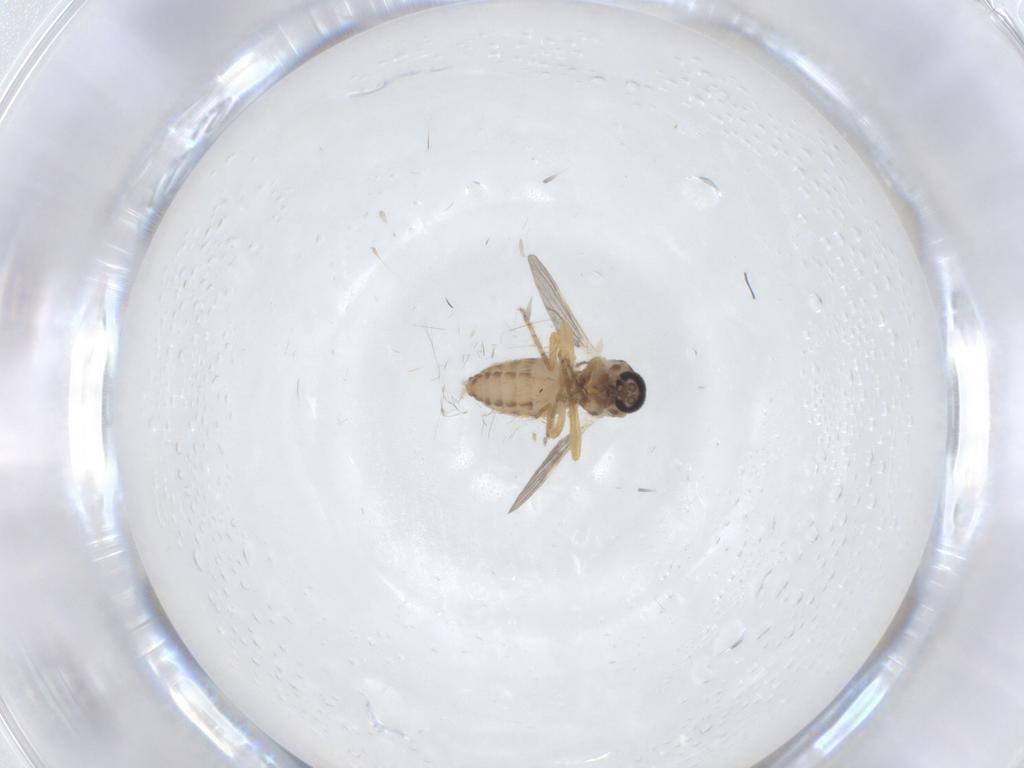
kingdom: Animalia
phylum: Arthropoda
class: Insecta
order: Diptera
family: Ceratopogonidae
